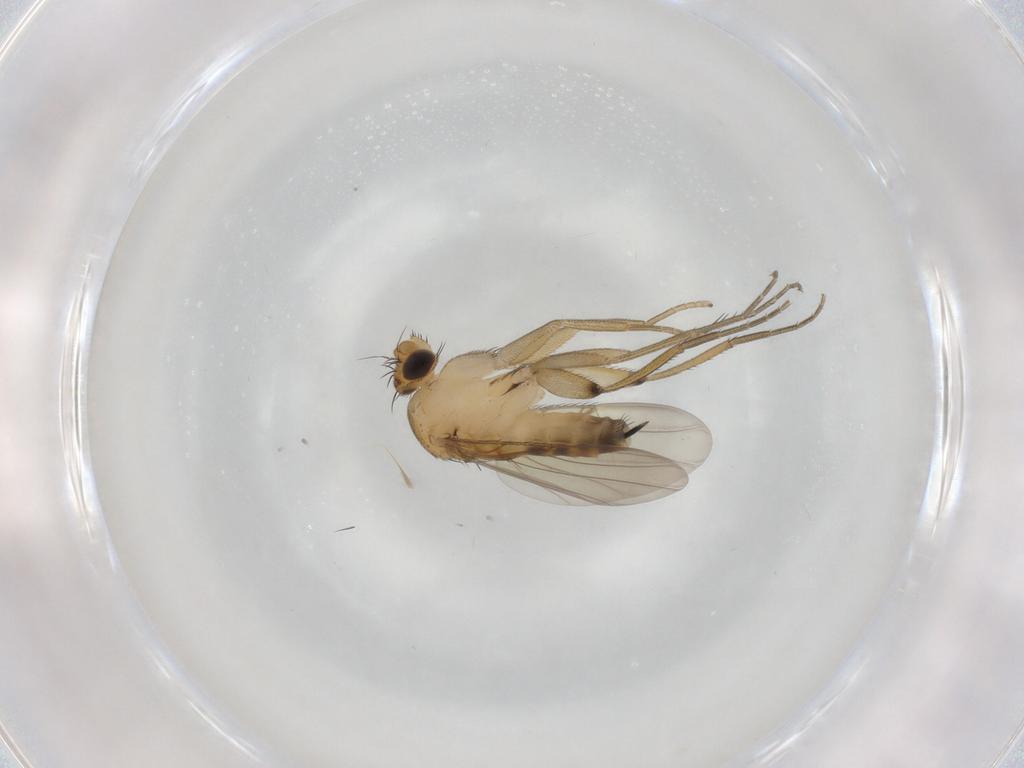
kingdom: Animalia
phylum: Arthropoda
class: Insecta
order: Diptera
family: Phoridae
